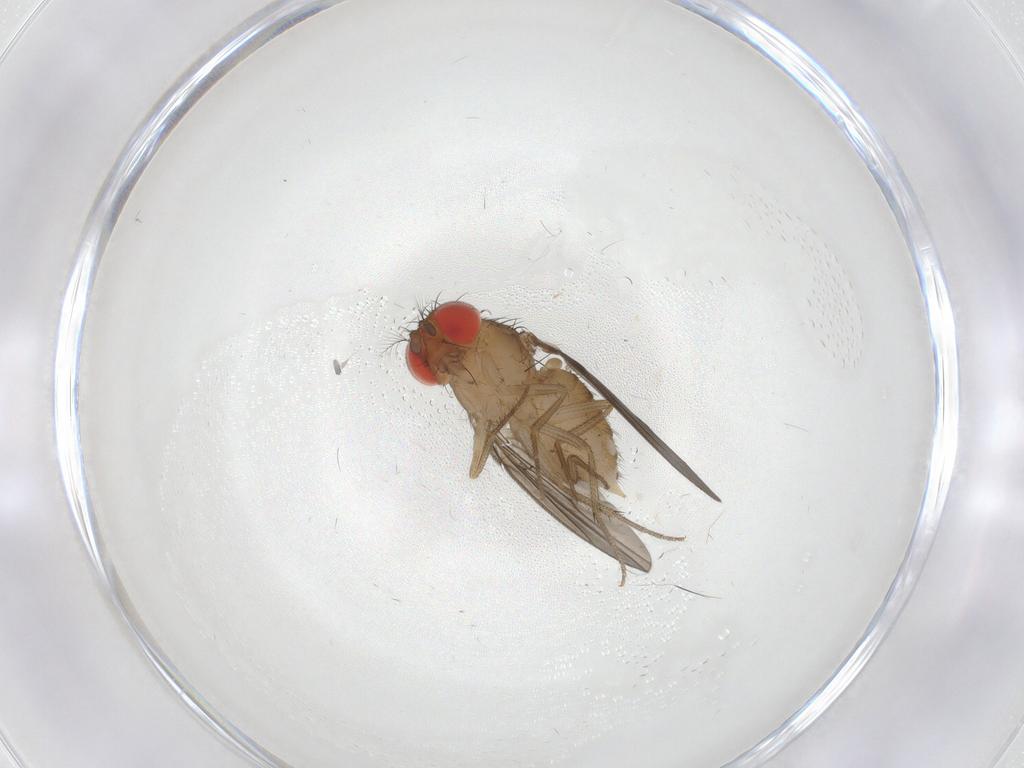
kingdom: Animalia
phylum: Arthropoda
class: Insecta
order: Diptera
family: Drosophilidae
